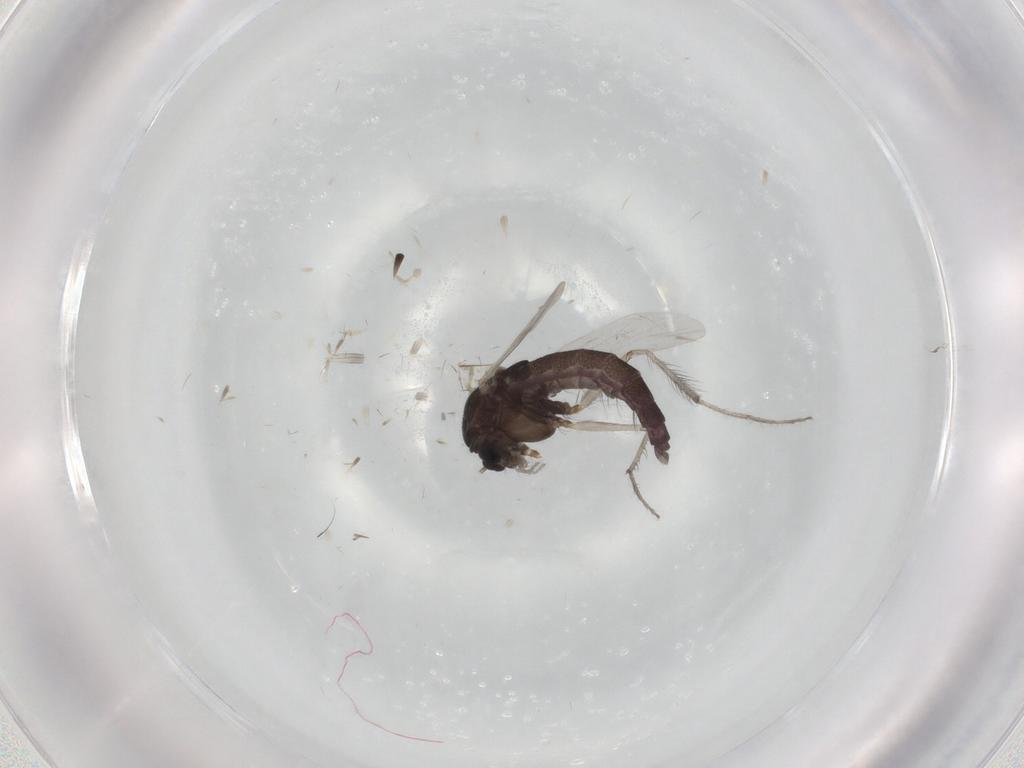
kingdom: Animalia
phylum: Arthropoda
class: Insecta
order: Diptera
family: Chironomidae
